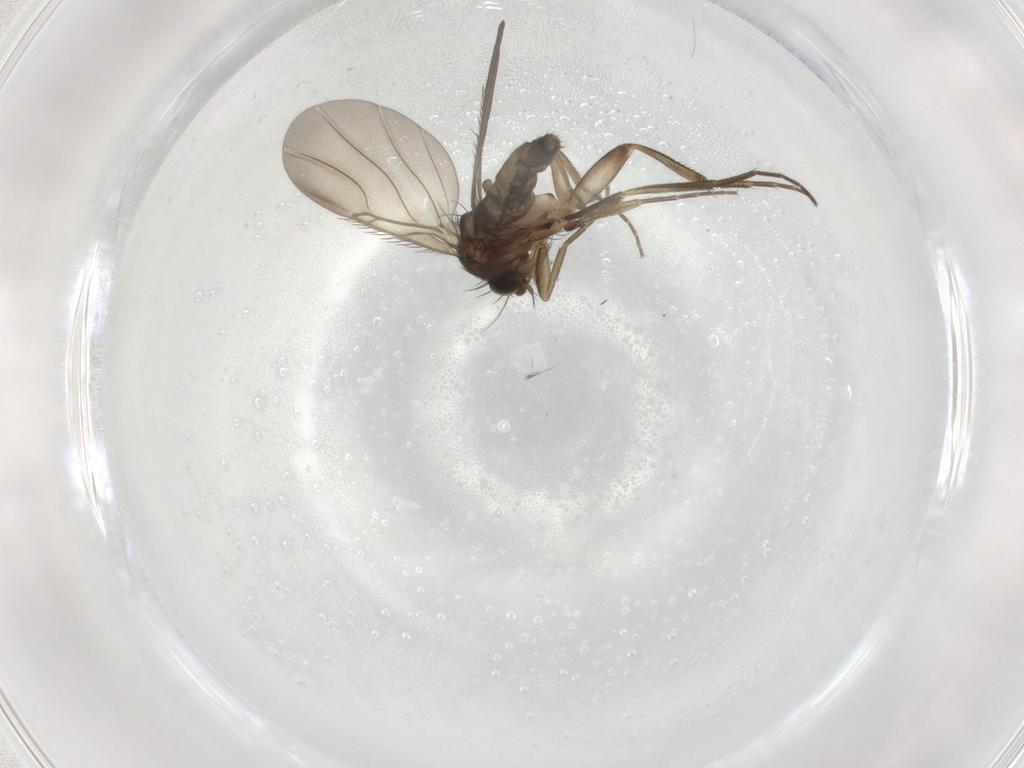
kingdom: Animalia
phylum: Arthropoda
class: Insecta
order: Diptera
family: Phoridae
